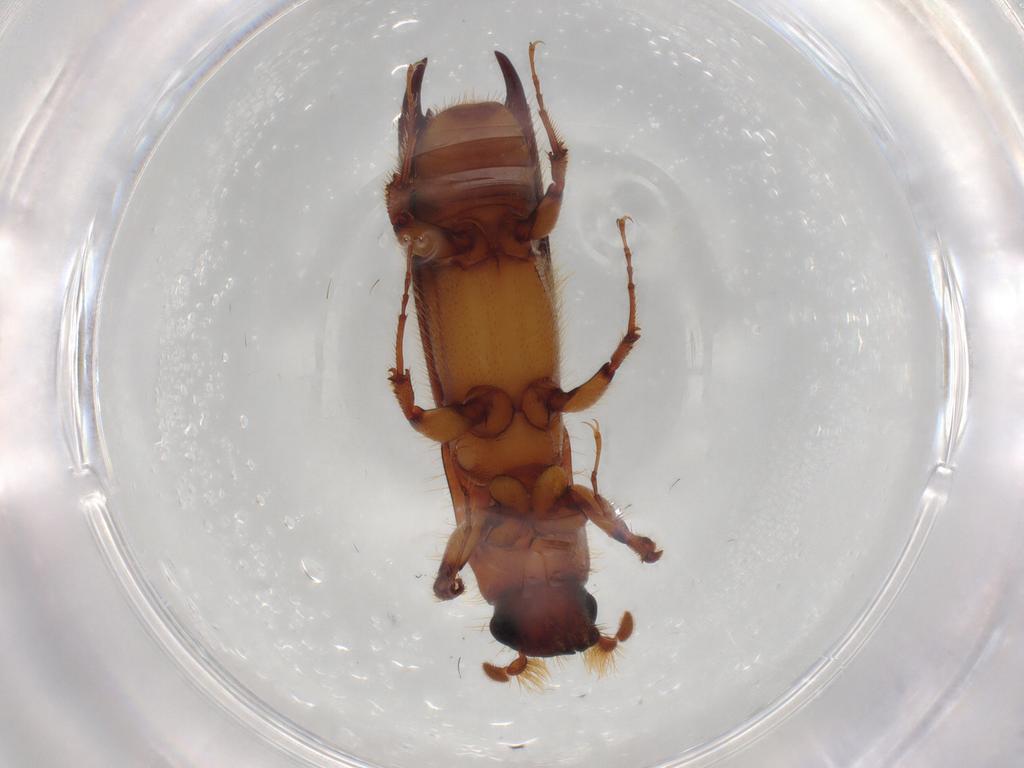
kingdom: Animalia
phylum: Arthropoda
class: Insecta
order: Coleoptera
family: Curculionidae
